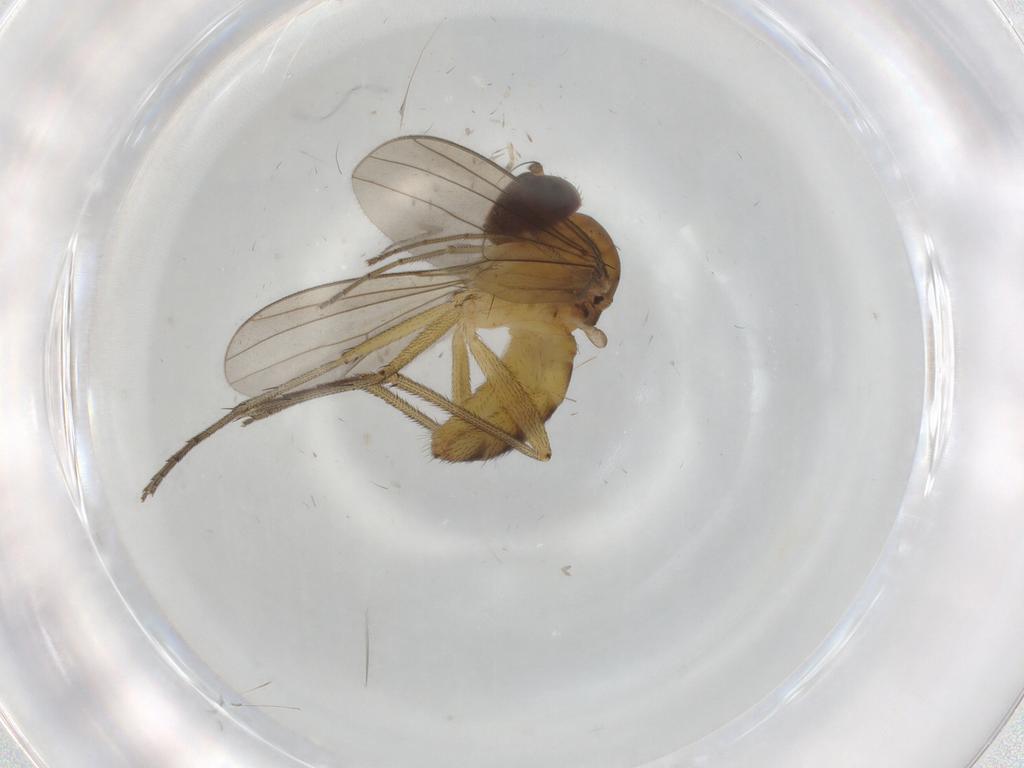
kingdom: Animalia
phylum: Arthropoda
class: Insecta
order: Diptera
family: Dolichopodidae
